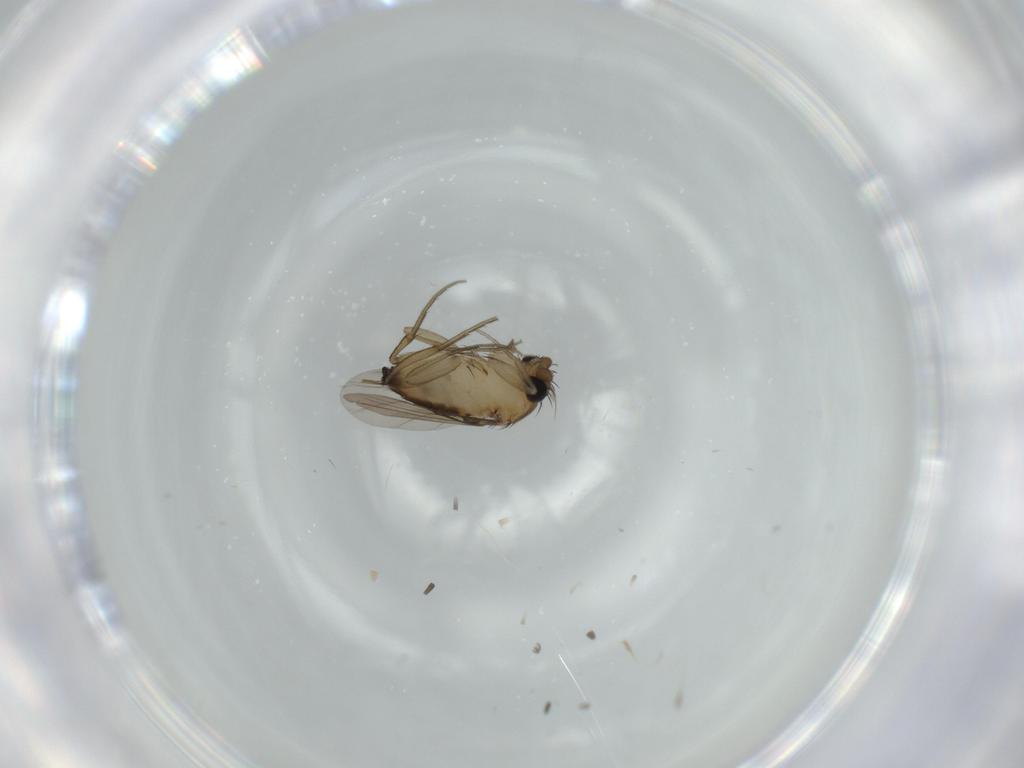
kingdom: Animalia
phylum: Arthropoda
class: Insecta
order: Diptera
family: Phoridae
